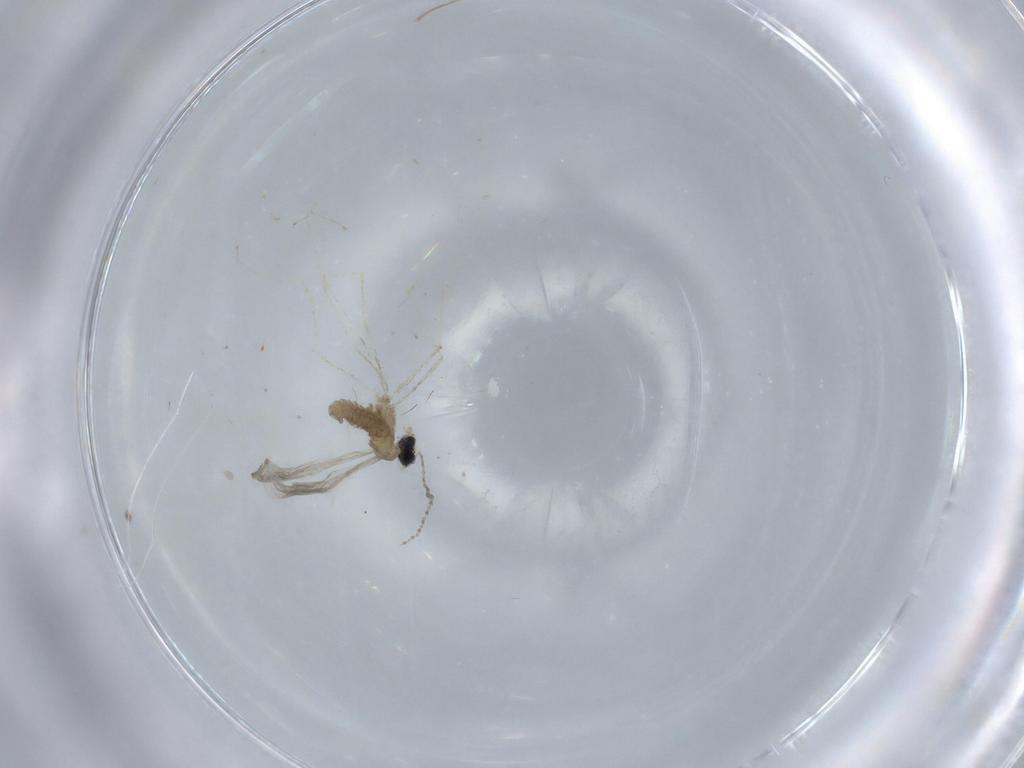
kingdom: Animalia
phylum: Arthropoda
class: Insecta
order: Diptera
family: Cecidomyiidae
